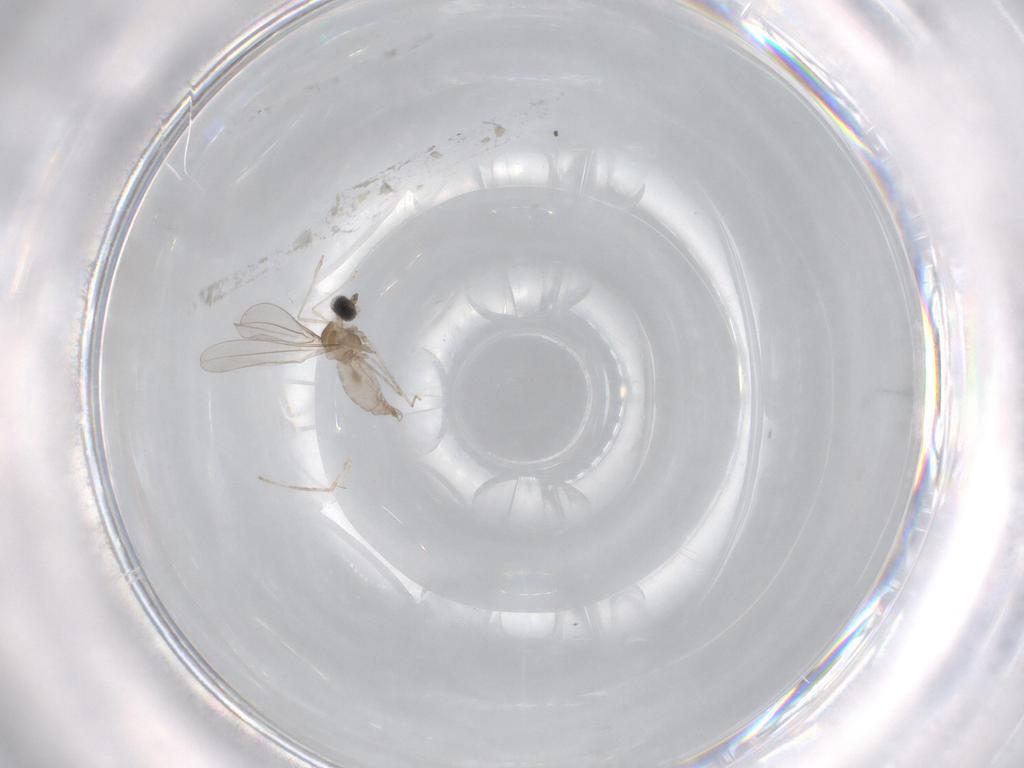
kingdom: Animalia
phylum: Arthropoda
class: Insecta
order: Diptera
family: Cecidomyiidae
